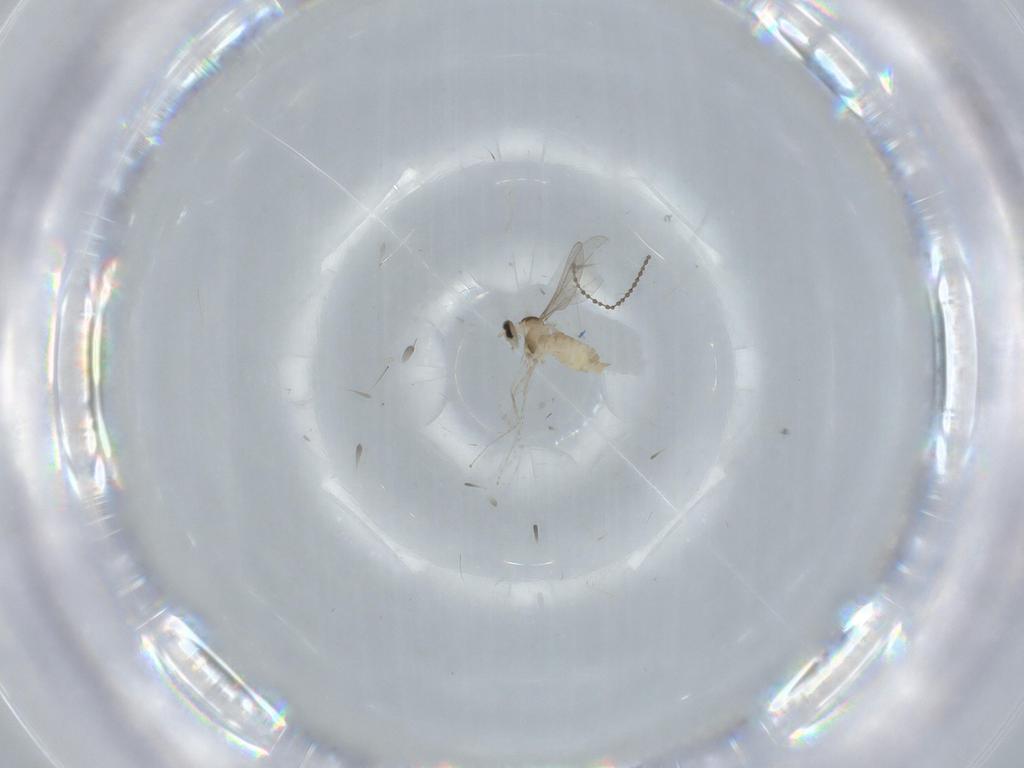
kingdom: Animalia
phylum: Arthropoda
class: Insecta
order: Diptera
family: Cecidomyiidae
